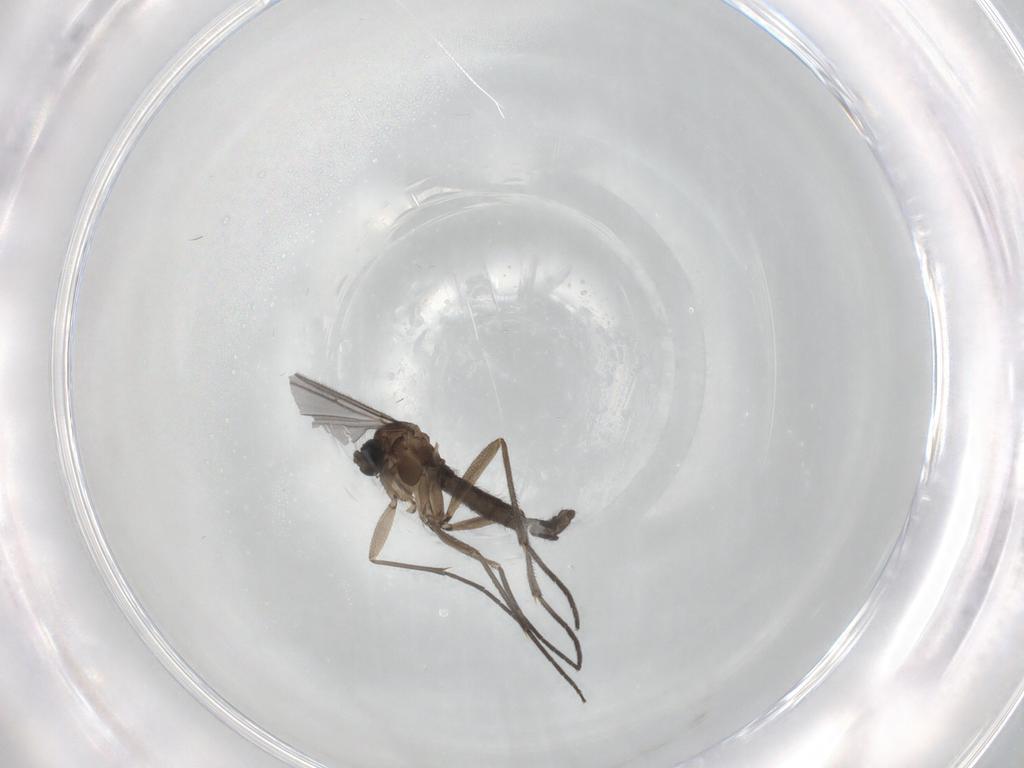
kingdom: Animalia
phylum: Arthropoda
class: Insecta
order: Diptera
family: Sciaridae
